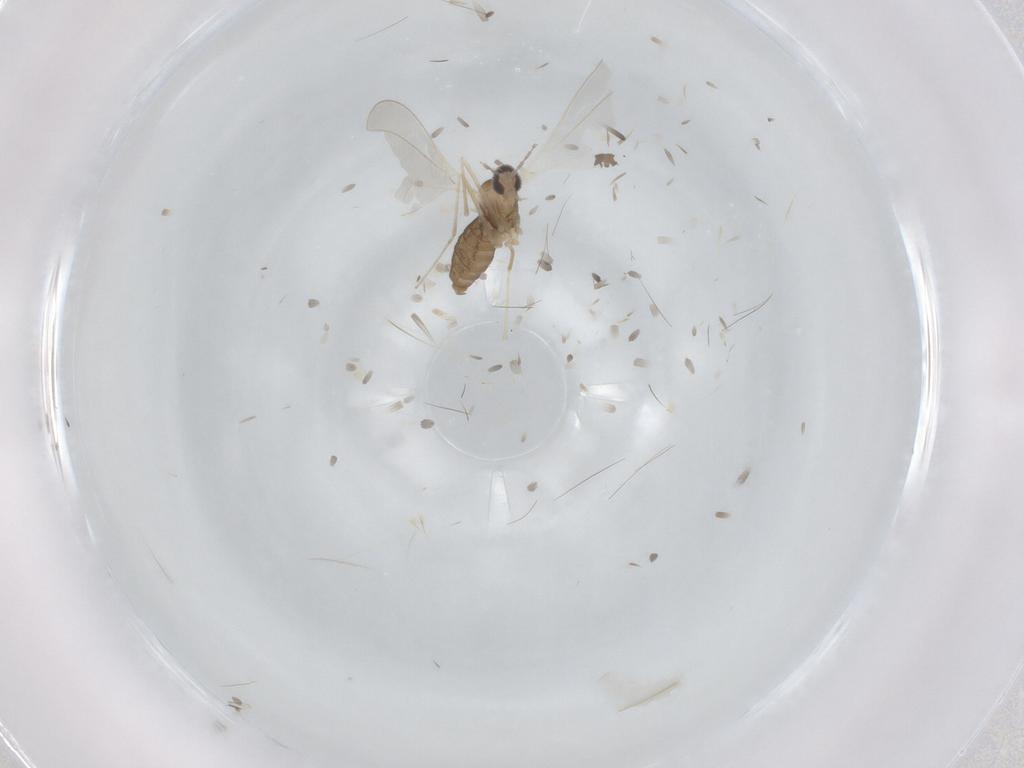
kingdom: Animalia
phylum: Arthropoda
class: Insecta
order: Diptera
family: Cecidomyiidae
